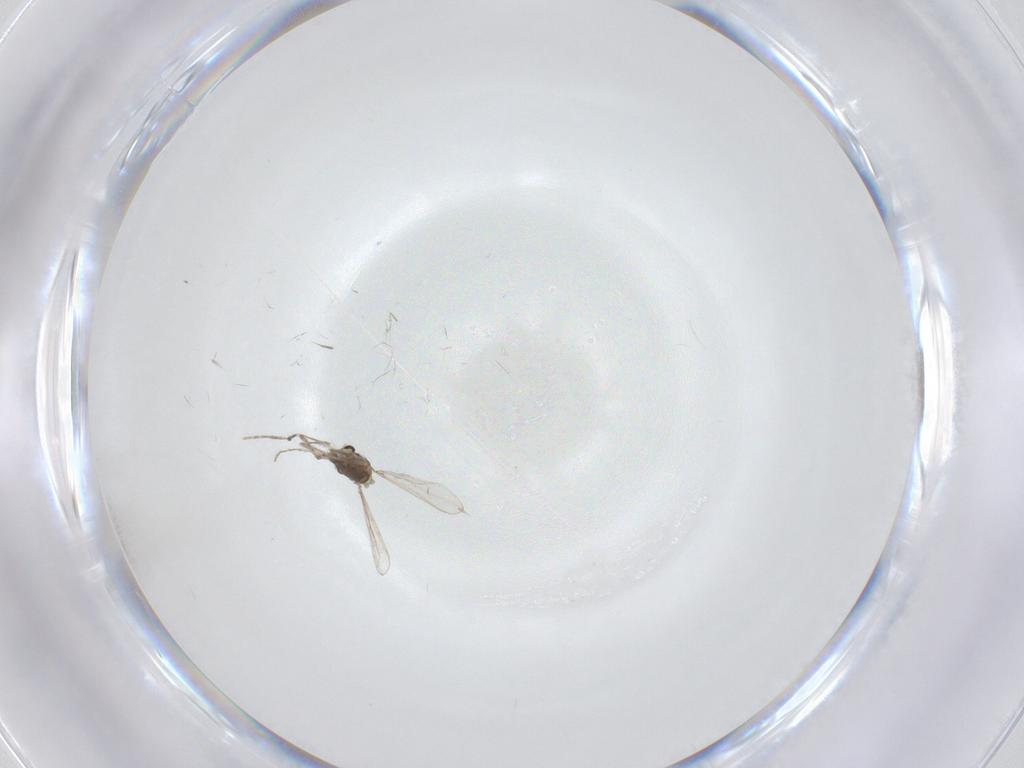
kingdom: Animalia
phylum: Arthropoda
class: Insecta
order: Diptera
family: Chironomidae
